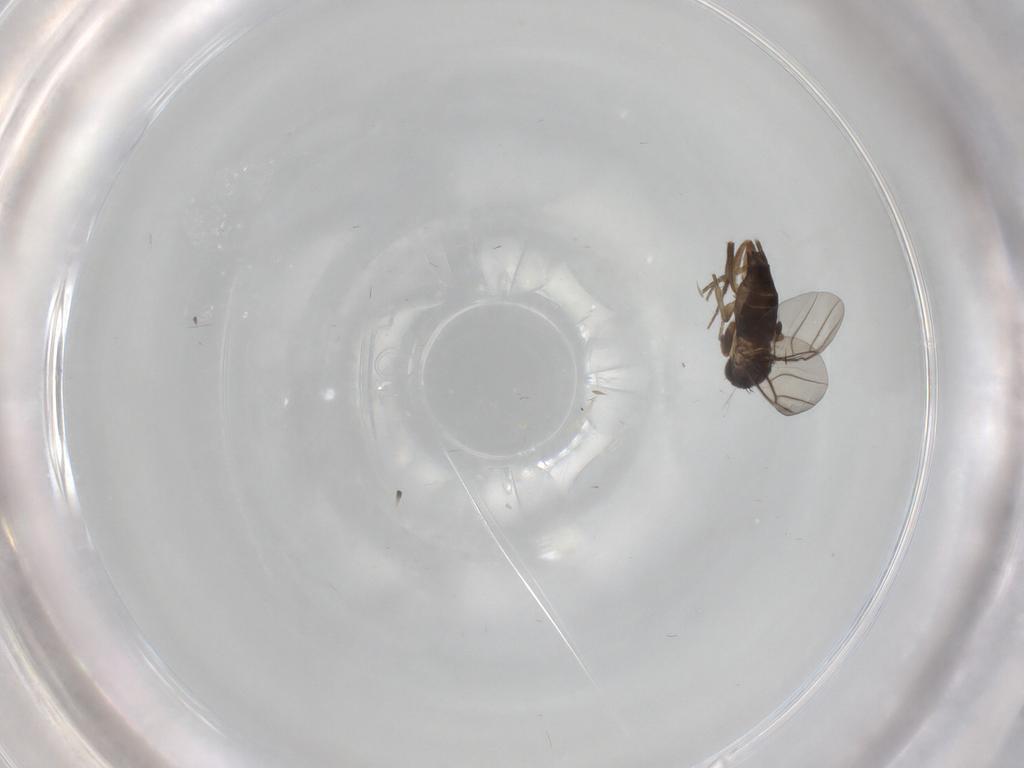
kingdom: Animalia
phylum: Arthropoda
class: Insecta
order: Diptera
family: Phoridae
